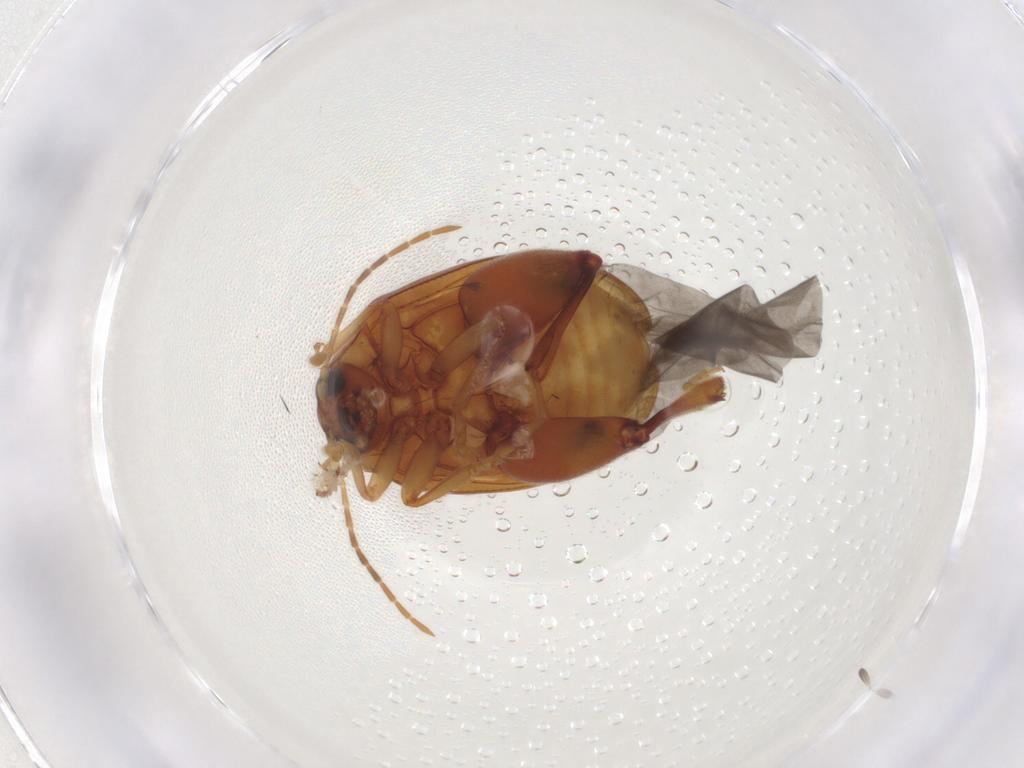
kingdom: Animalia
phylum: Arthropoda
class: Insecta
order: Coleoptera
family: Chrysomelidae
